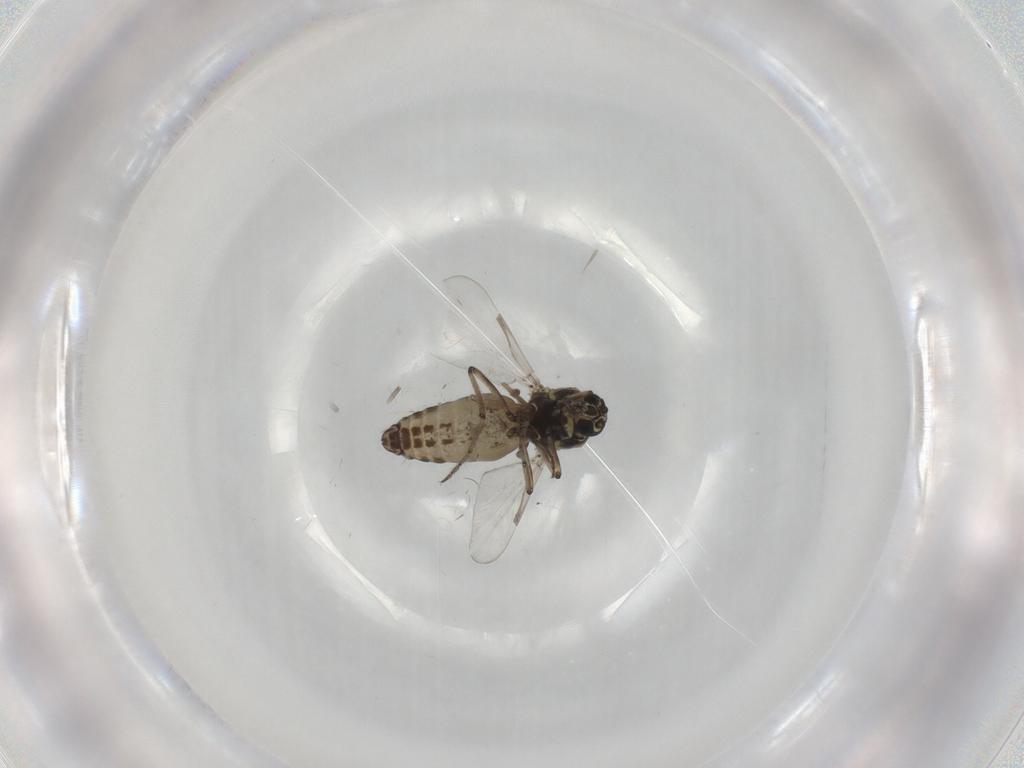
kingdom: Animalia
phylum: Arthropoda
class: Insecta
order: Diptera
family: Ceratopogonidae
